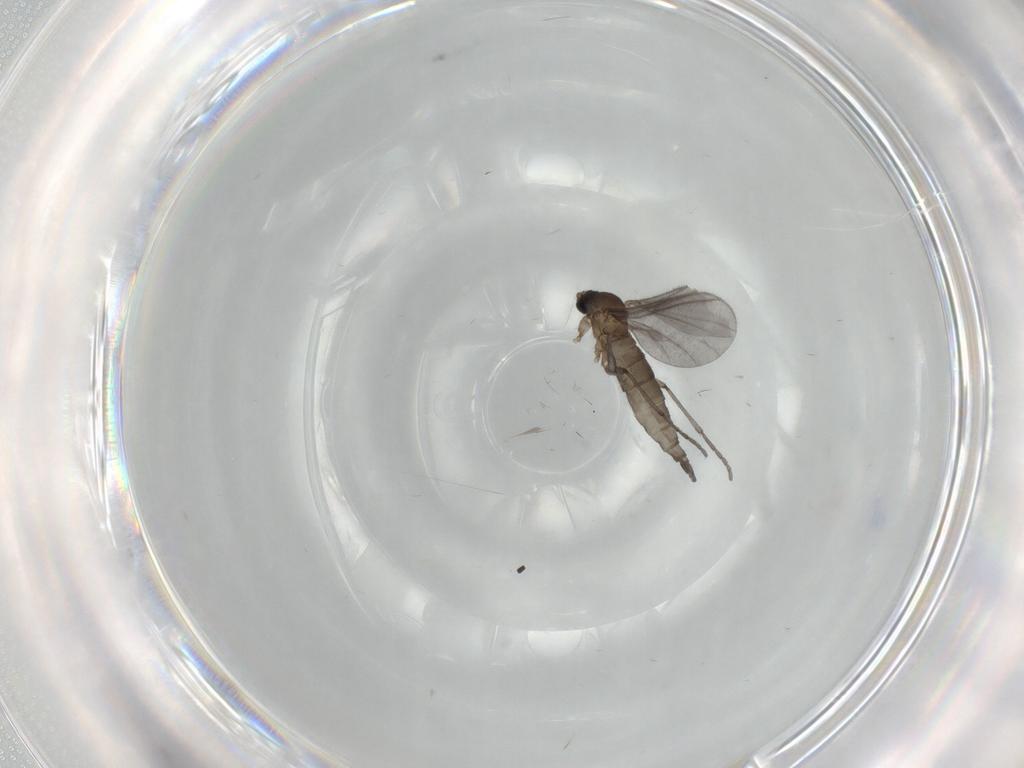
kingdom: Animalia
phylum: Arthropoda
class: Insecta
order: Diptera
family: Sciaridae
